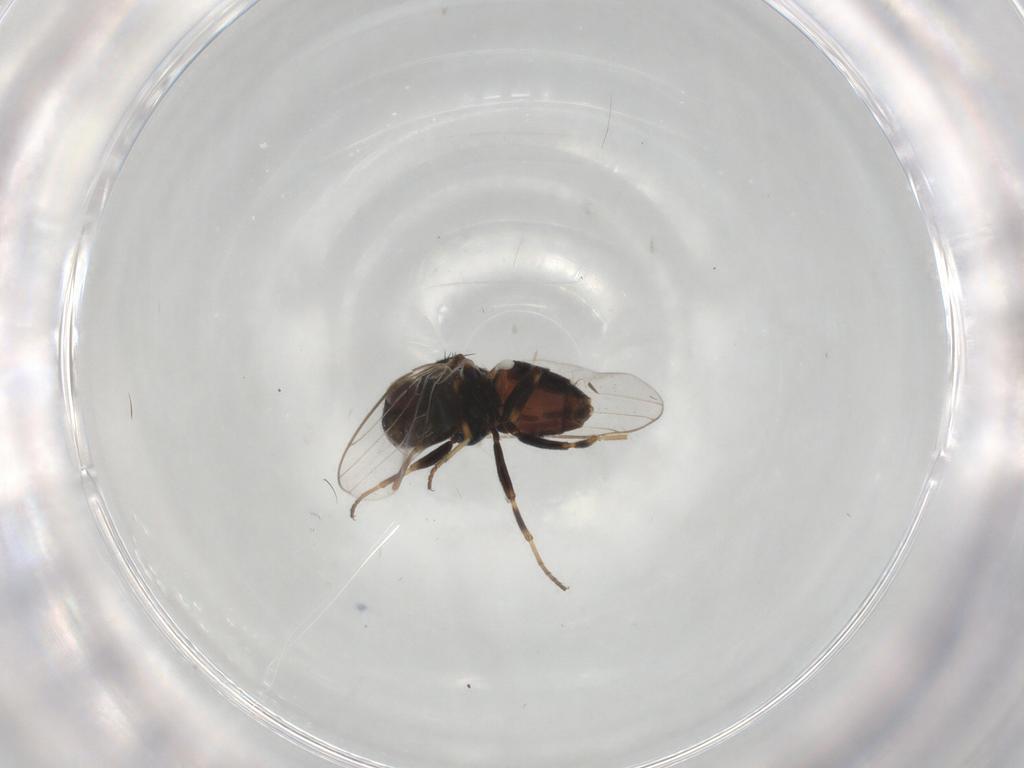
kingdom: Animalia
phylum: Arthropoda
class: Insecta
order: Diptera
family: Chloropidae
